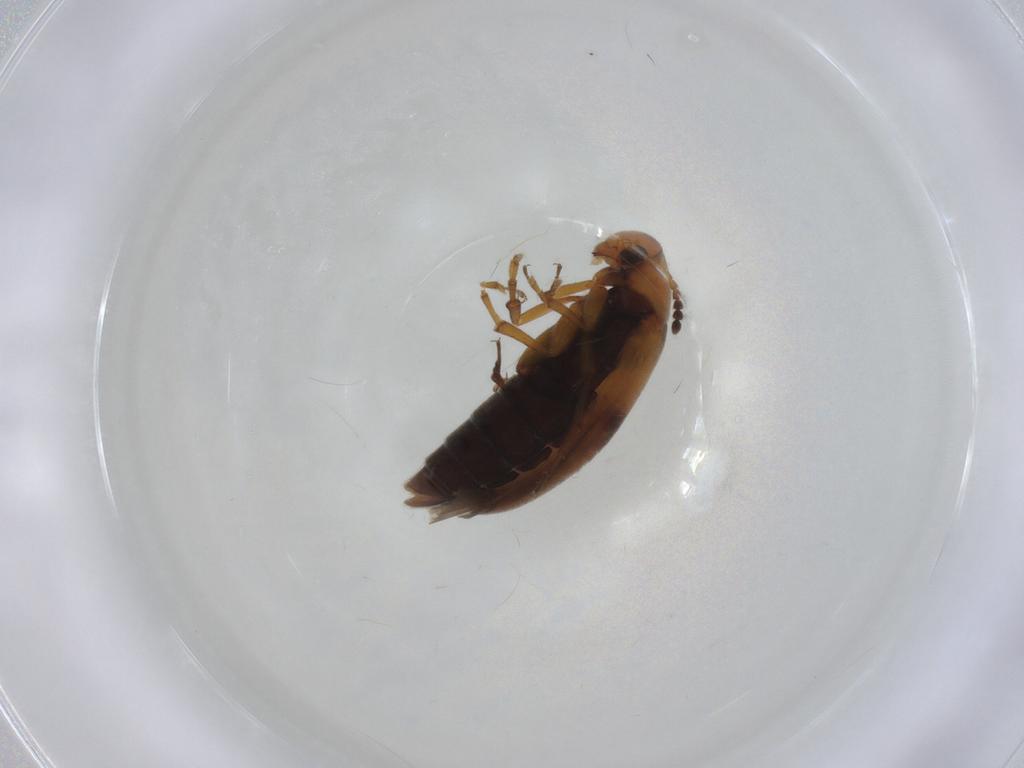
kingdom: Animalia
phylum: Arthropoda
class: Insecta
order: Coleoptera
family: Scraptiidae
